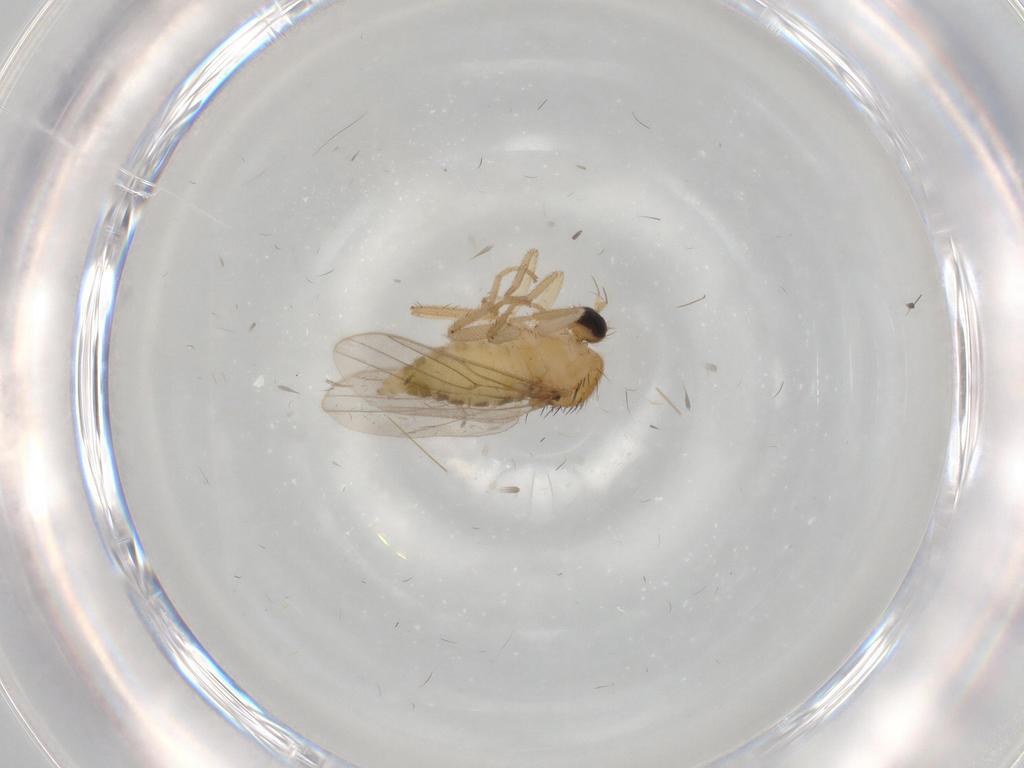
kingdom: Animalia
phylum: Arthropoda
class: Insecta
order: Diptera
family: Hybotidae
